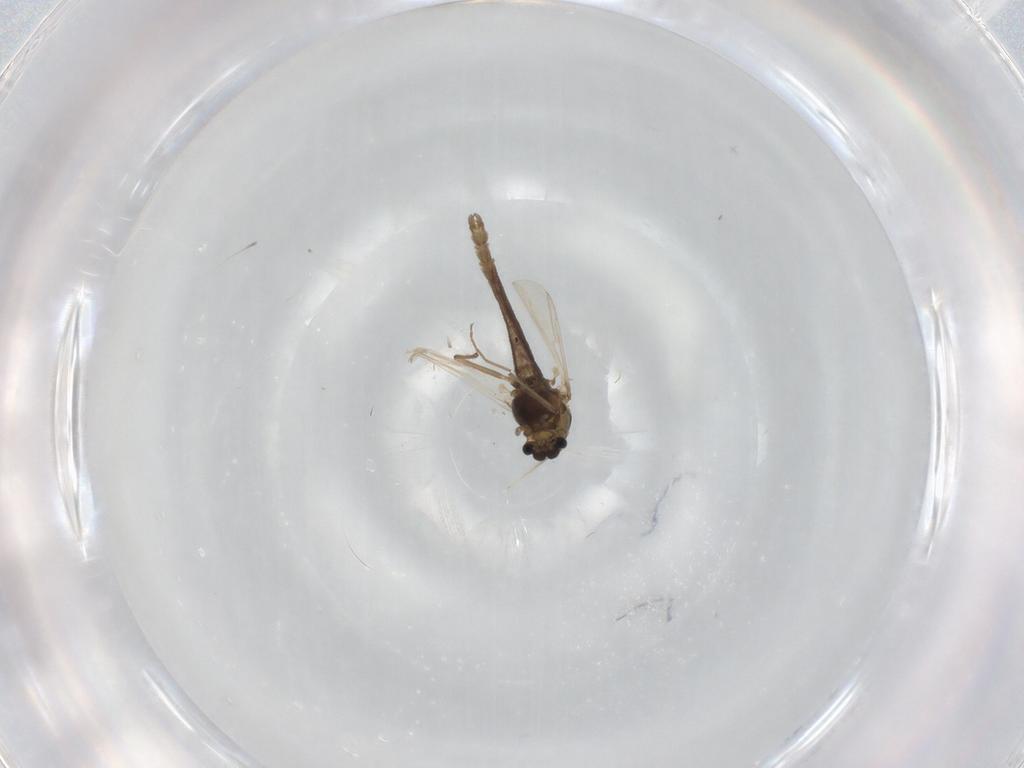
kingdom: Animalia
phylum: Arthropoda
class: Insecta
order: Diptera
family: Chironomidae
